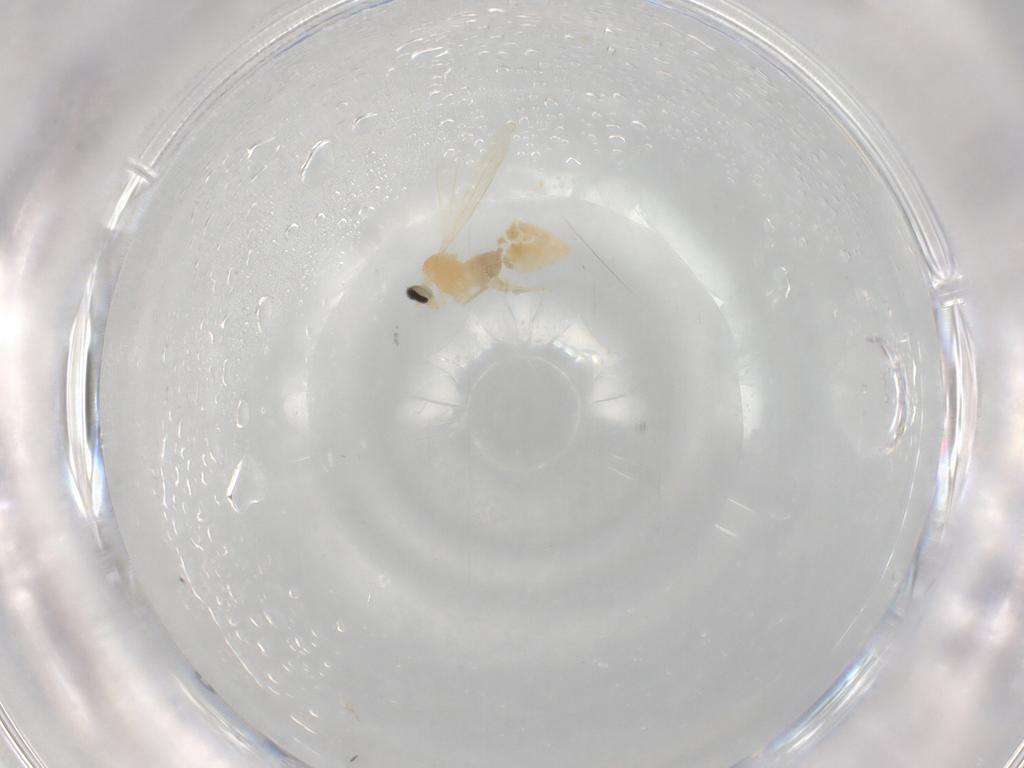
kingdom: Animalia
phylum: Arthropoda
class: Insecta
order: Diptera
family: Cecidomyiidae
